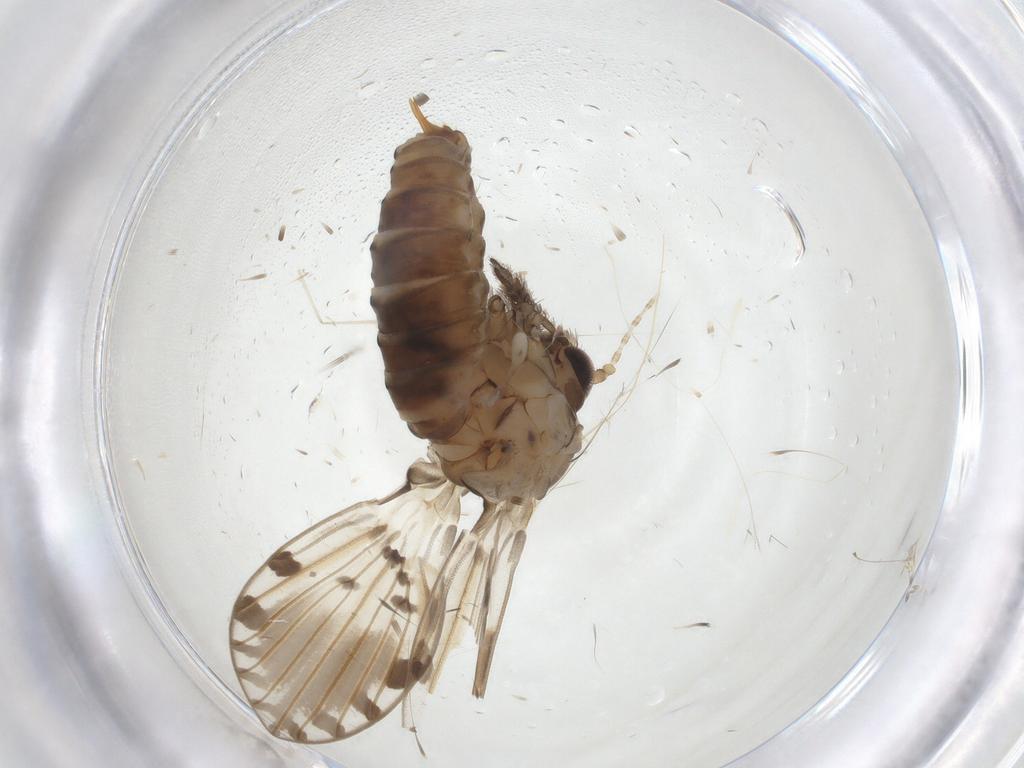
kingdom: Animalia
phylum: Arthropoda
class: Insecta
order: Diptera
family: Psychodidae
